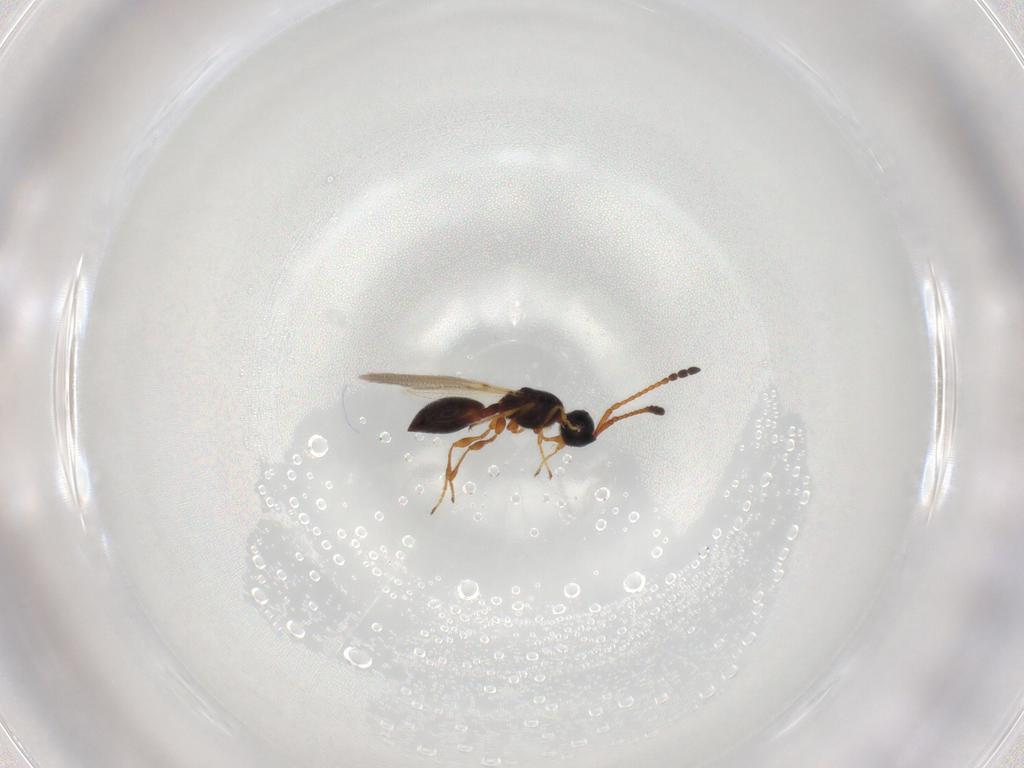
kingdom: Animalia
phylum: Arthropoda
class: Insecta
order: Hymenoptera
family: Diapriidae
